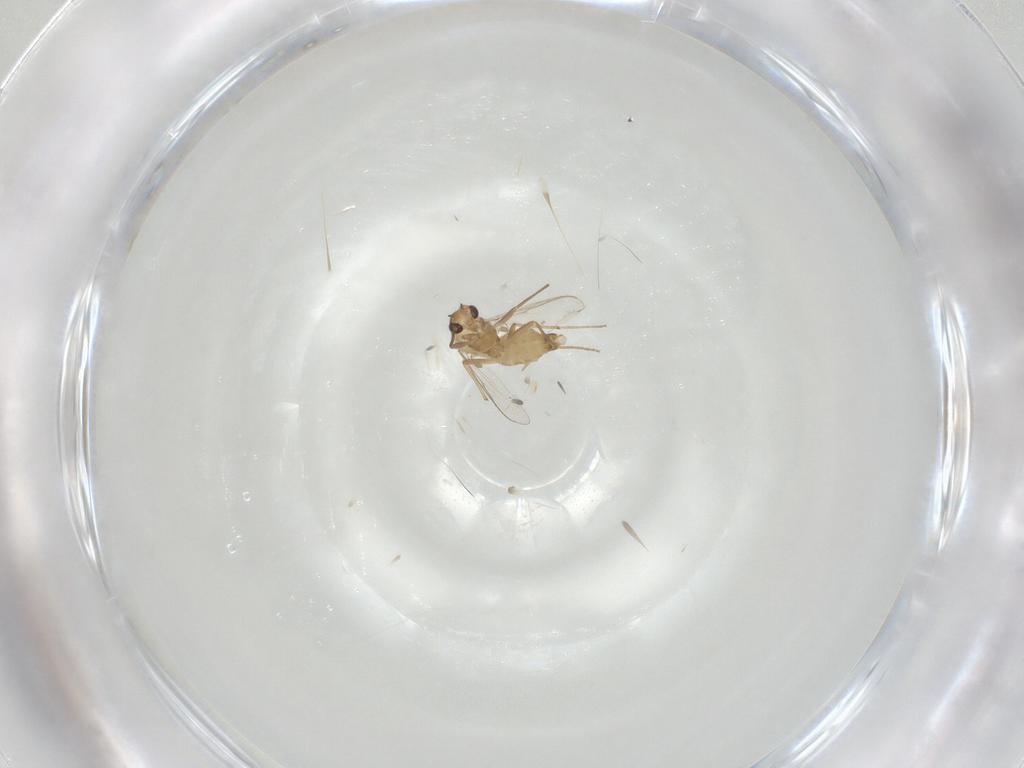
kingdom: Animalia
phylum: Arthropoda
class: Insecta
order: Diptera
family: Chironomidae
